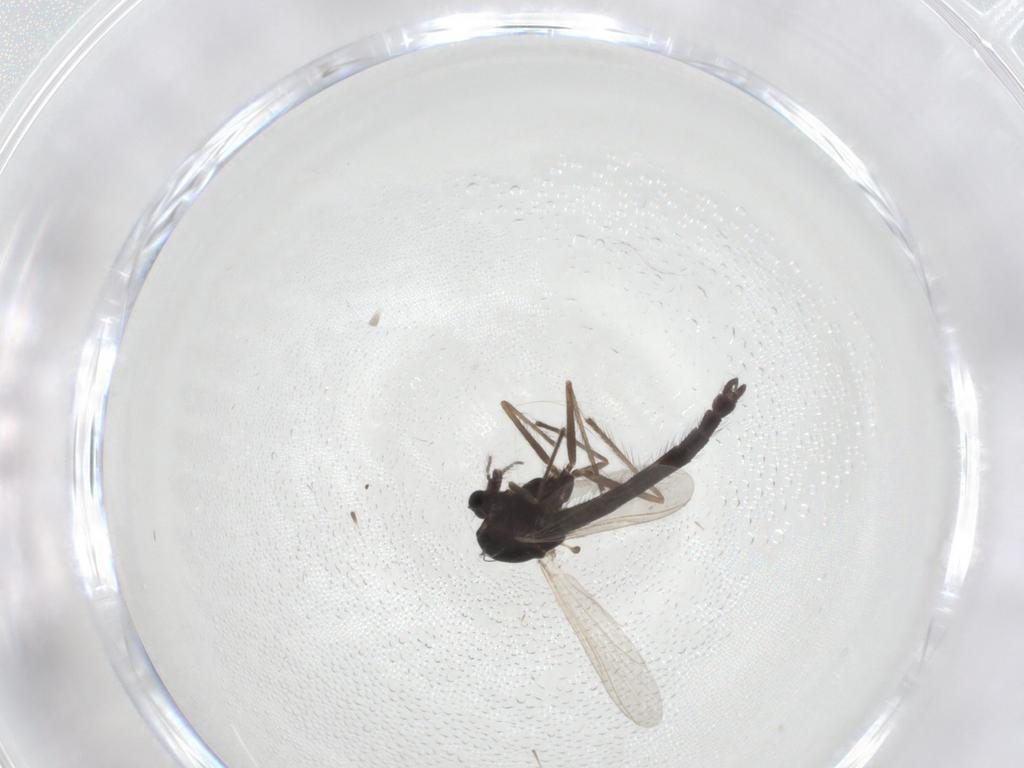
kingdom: Animalia
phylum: Arthropoda
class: Insecta
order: Diptera
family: Chironomidae
